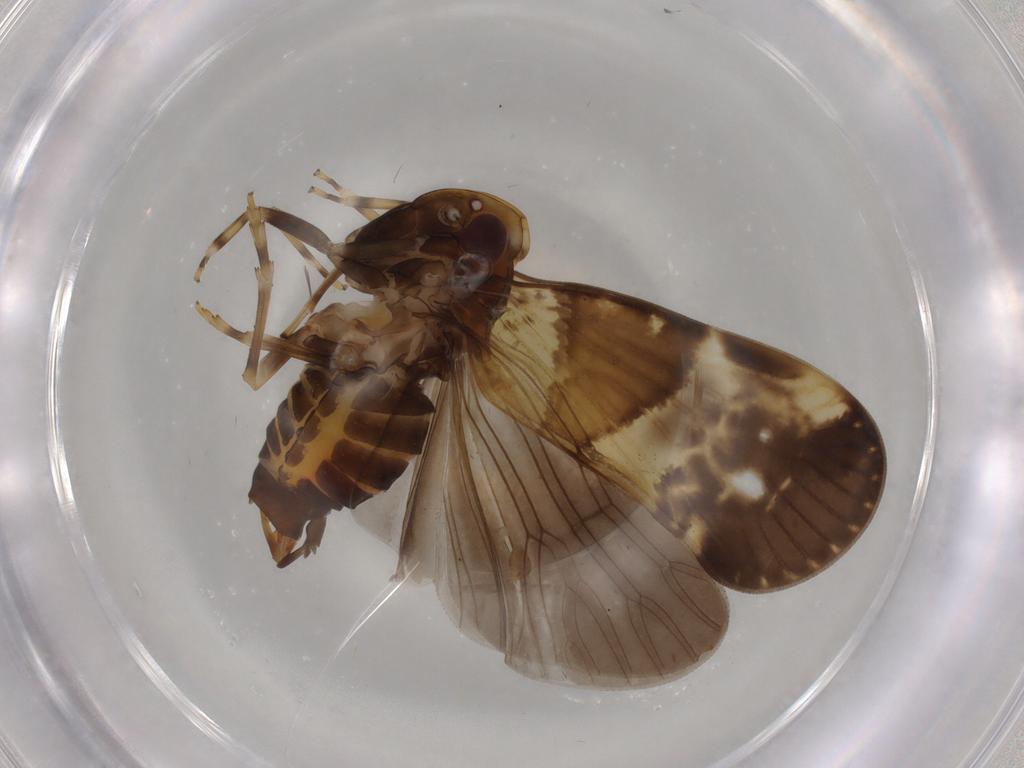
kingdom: Animalia
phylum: Arthropoda
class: Insecta
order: Hemiptera
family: Cixiidae
